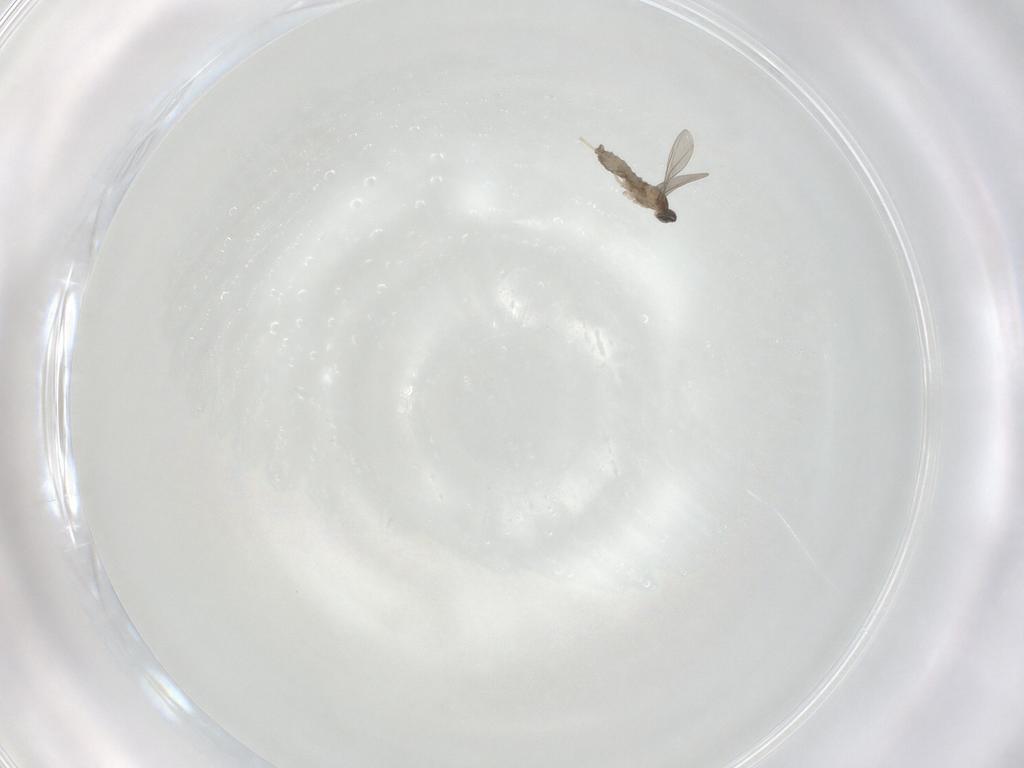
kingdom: Animalia
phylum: Arthropoda
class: Insecta
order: Diptera
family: Cecidomyiidae
